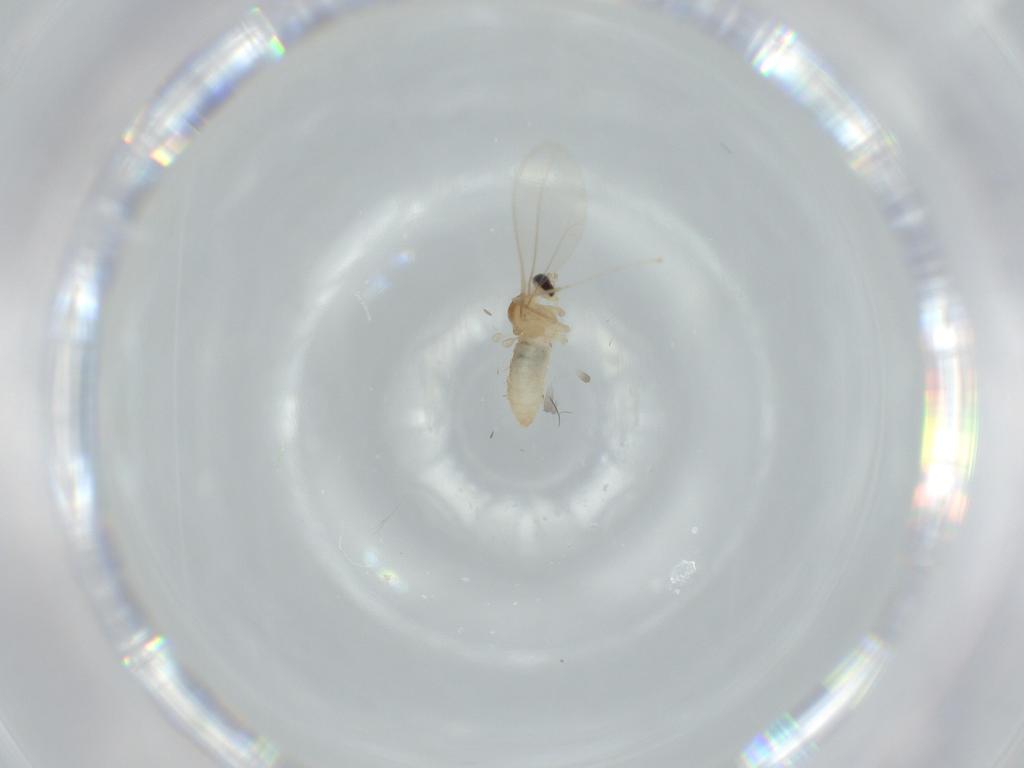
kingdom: Animalia
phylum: Arthropoda
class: Insecta
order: Diptera
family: Cecidomyiidae
